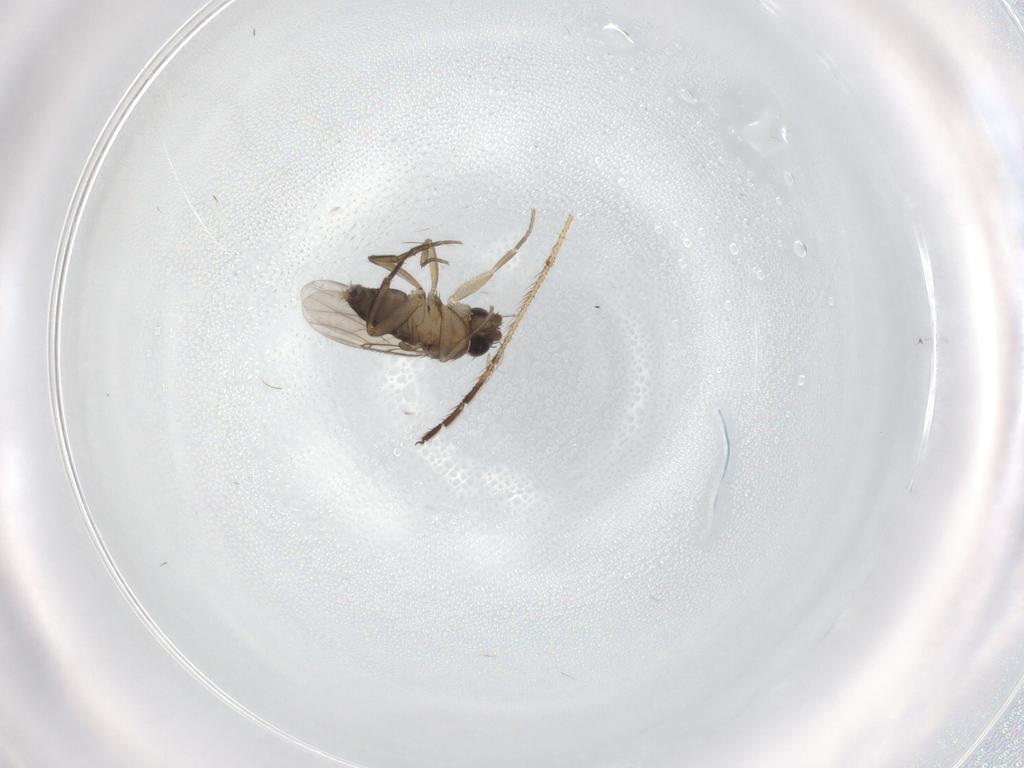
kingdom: Animalia
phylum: Arthropoda
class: Insecta
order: Diptera
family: Limoniidae
